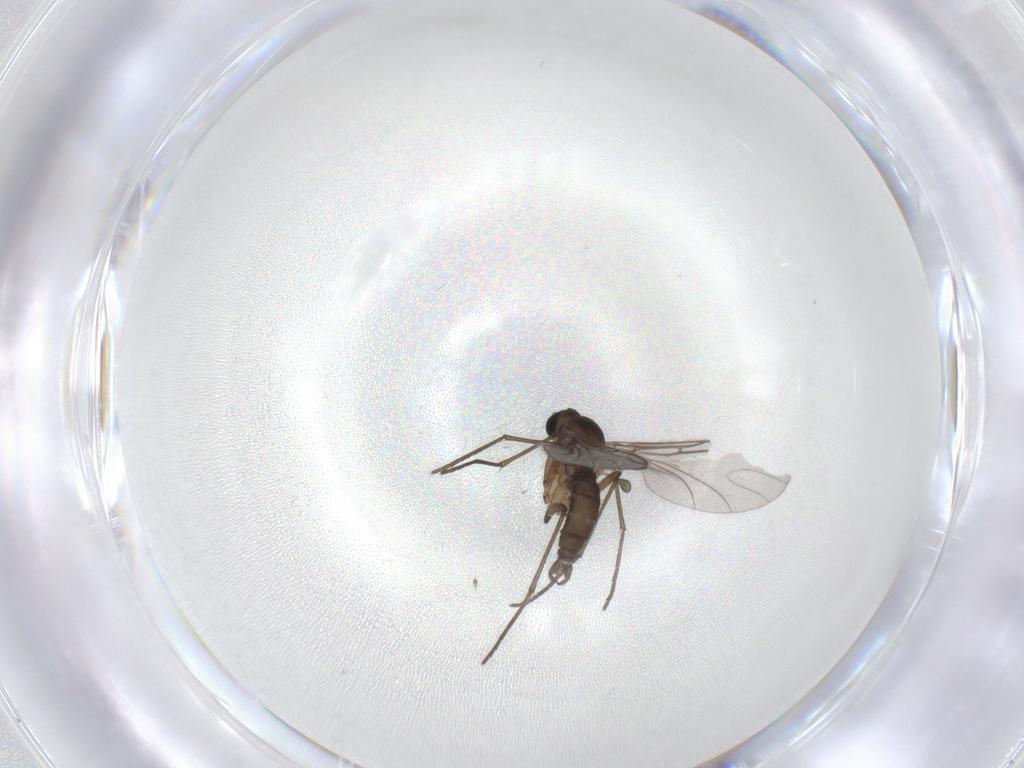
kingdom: Animalia
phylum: Arthropoda
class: Insecta
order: Diptera
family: Sciaridae
